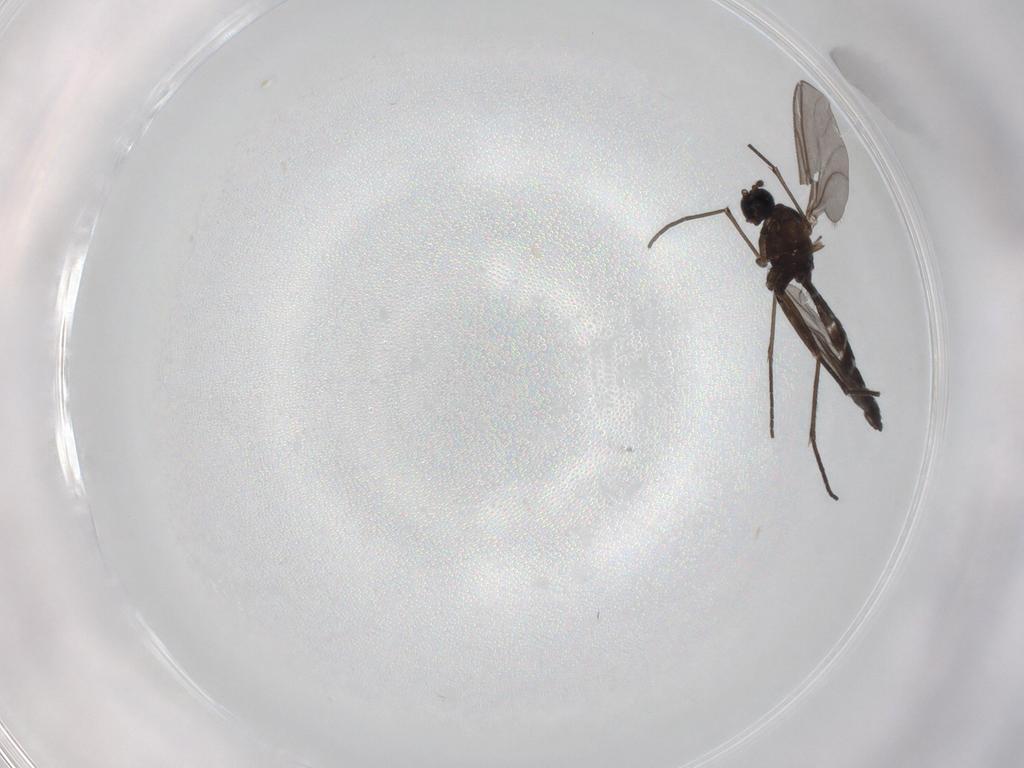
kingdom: Animalia
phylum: Arthropoda
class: Insecta
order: Diptera
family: Sciaridae
